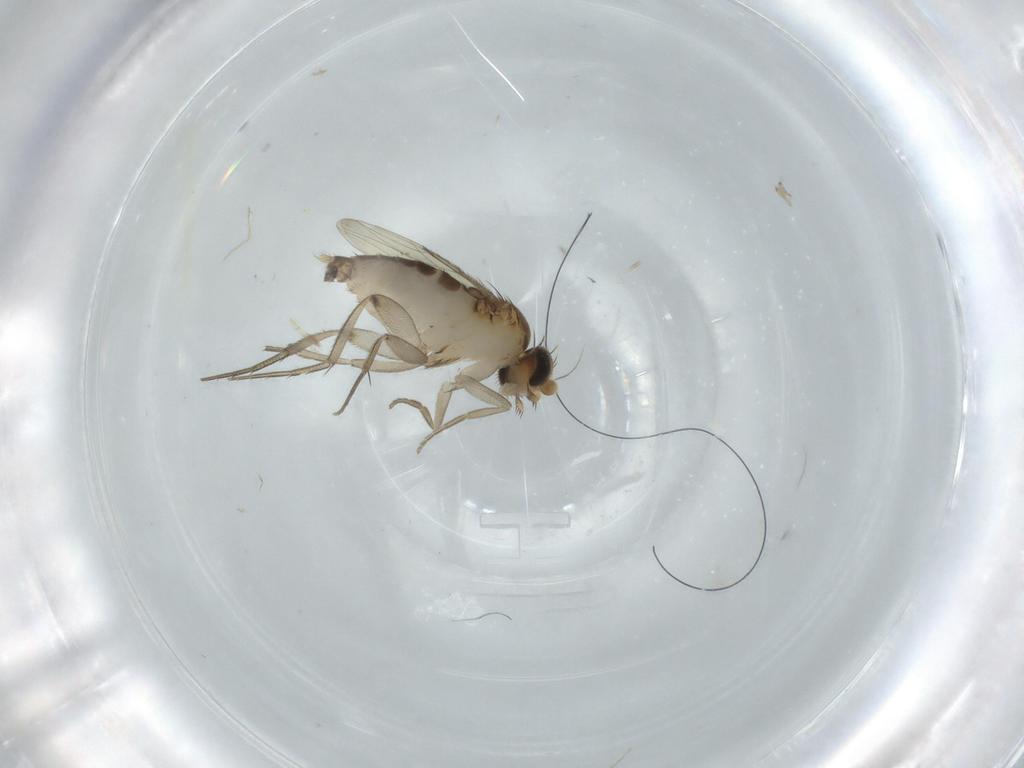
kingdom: Animalia
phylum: Arthropoda
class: Insecta
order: Diptera
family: Phoridae
